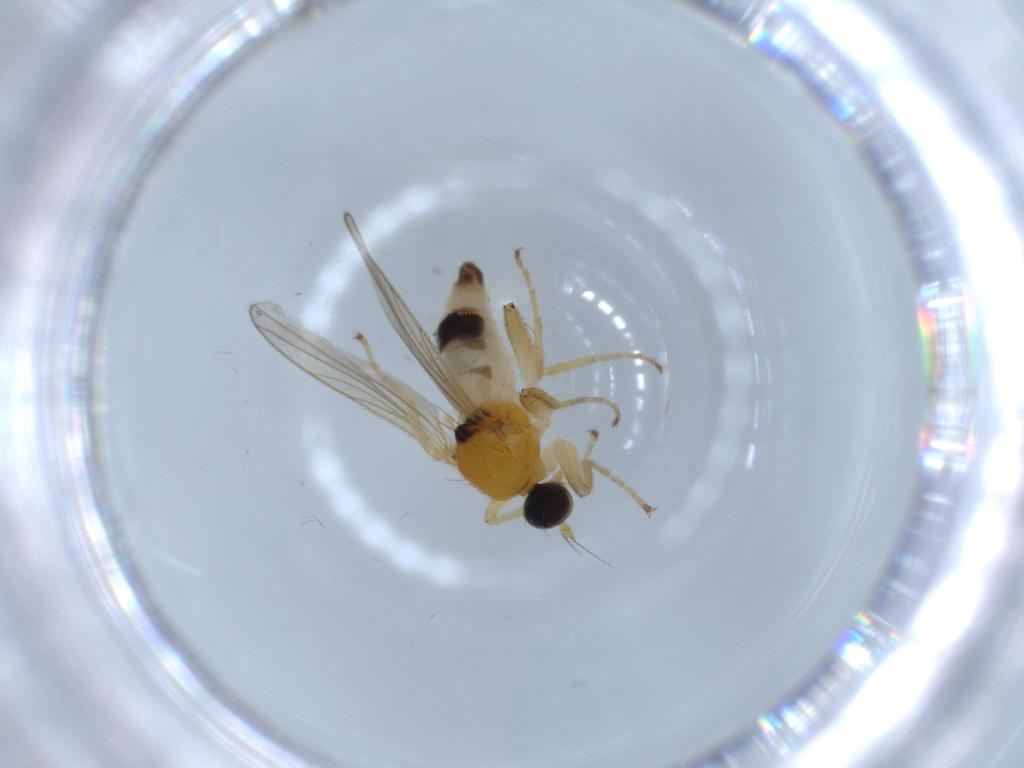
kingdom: Animalia
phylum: Arthropoda
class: Insecta
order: Diptera
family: Hybotidae
